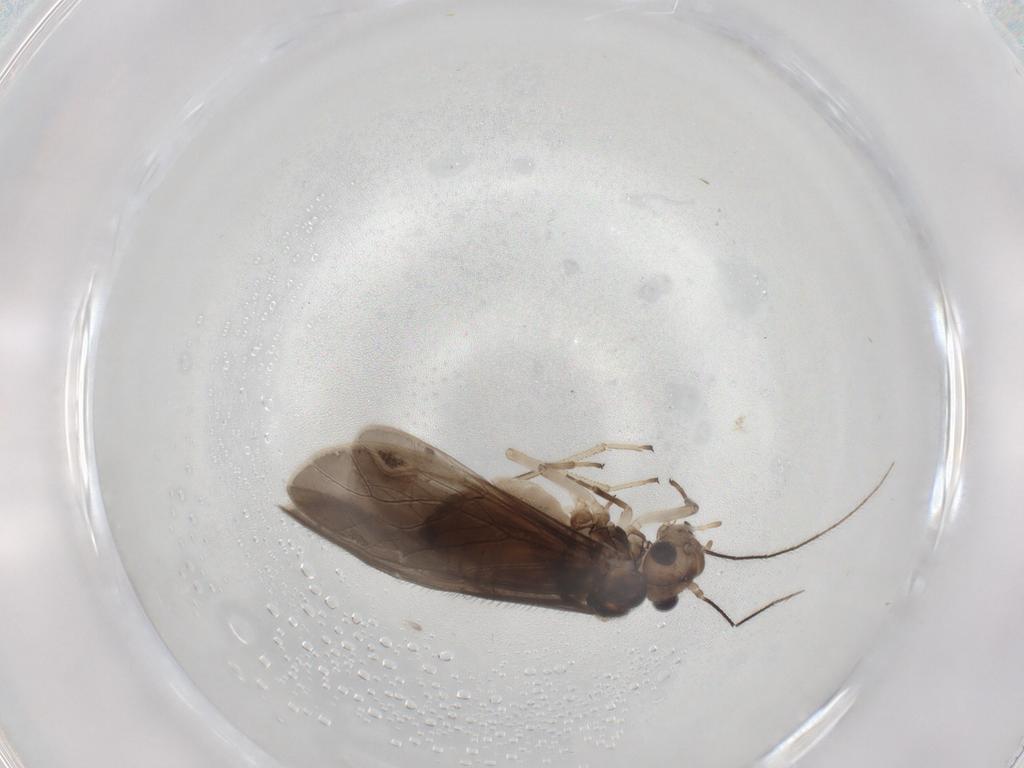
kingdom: Animalia
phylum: Arthropoda
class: Insecta
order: Psocodea
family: Caeciliusidae
